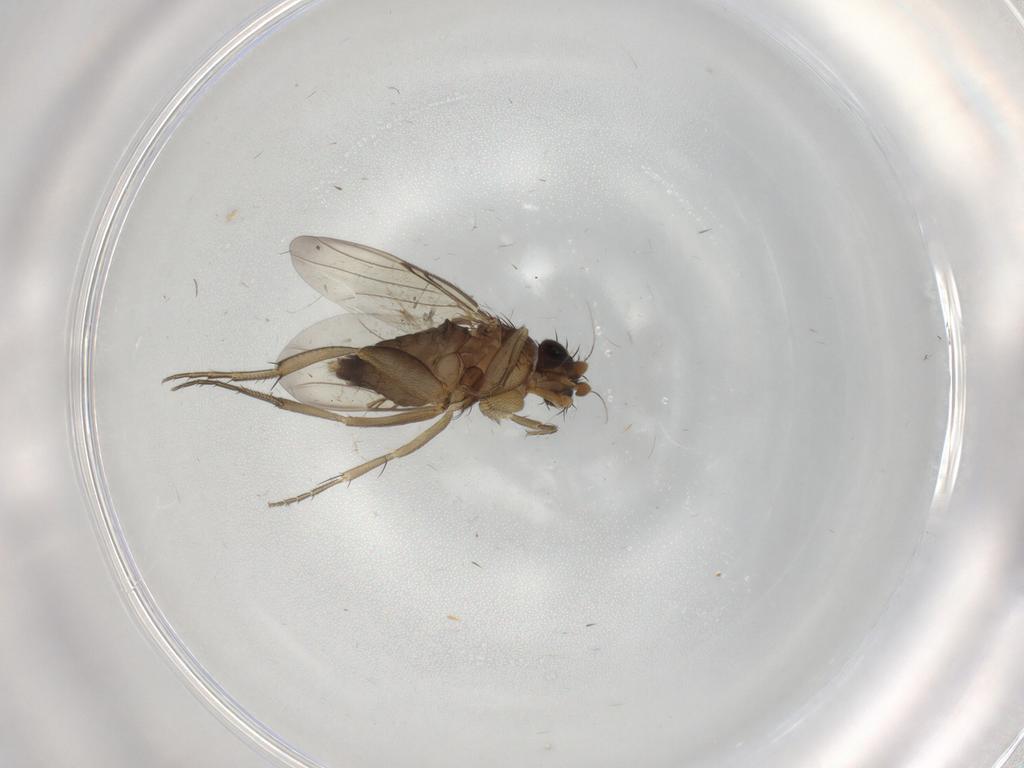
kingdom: Animalia
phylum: Arthropoda
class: Insecta
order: Diptera
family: Phoridae
